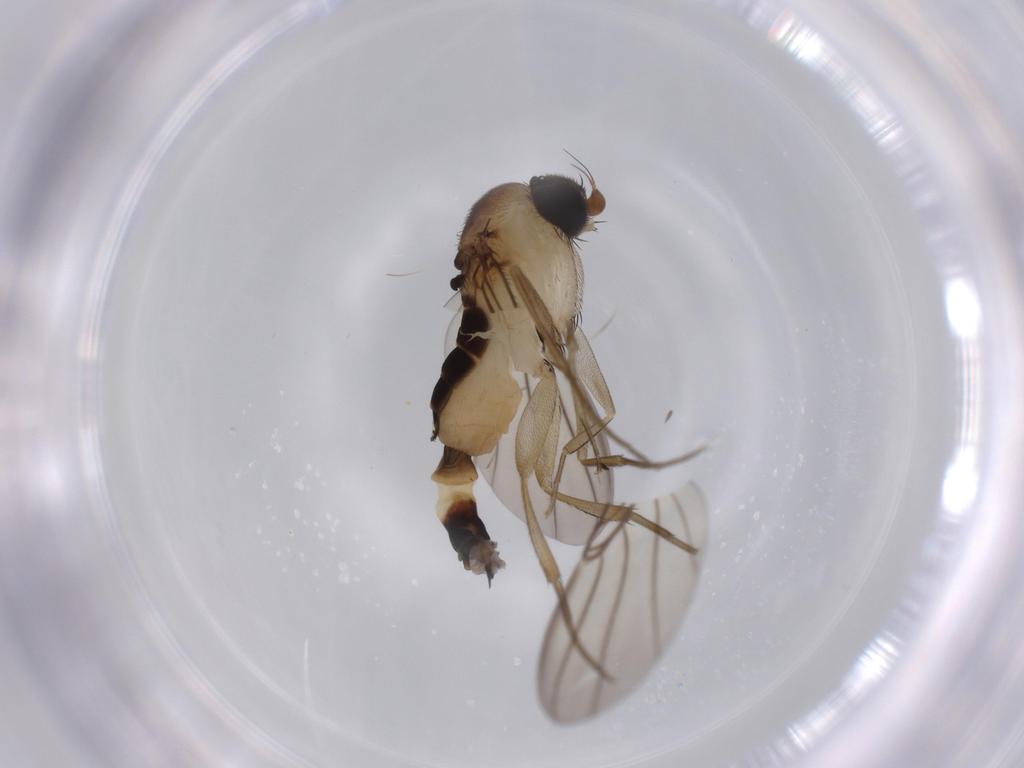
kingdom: Animalia
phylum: Arthropoda
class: Insecta
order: Diptera
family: Phoridae
